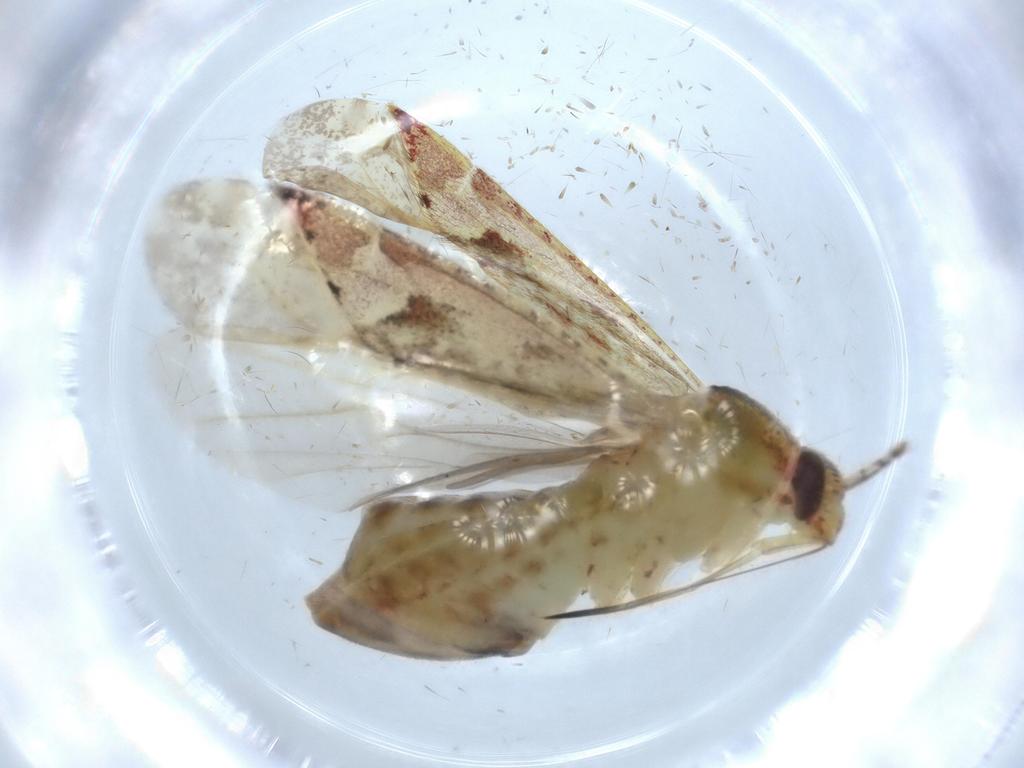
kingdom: Animalia
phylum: Arthropoda
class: Insecta
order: Hemiptera
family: Miridae
